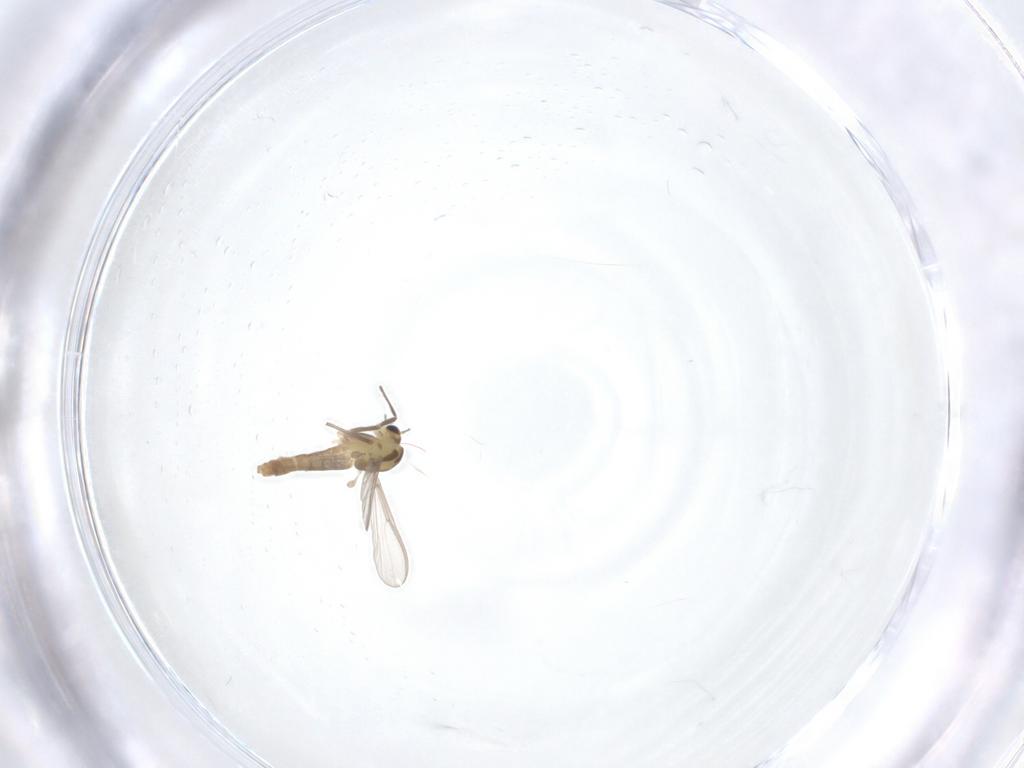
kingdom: Animalia
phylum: Arthropoda
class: Insecta
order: Diptera
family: Chironomidae
